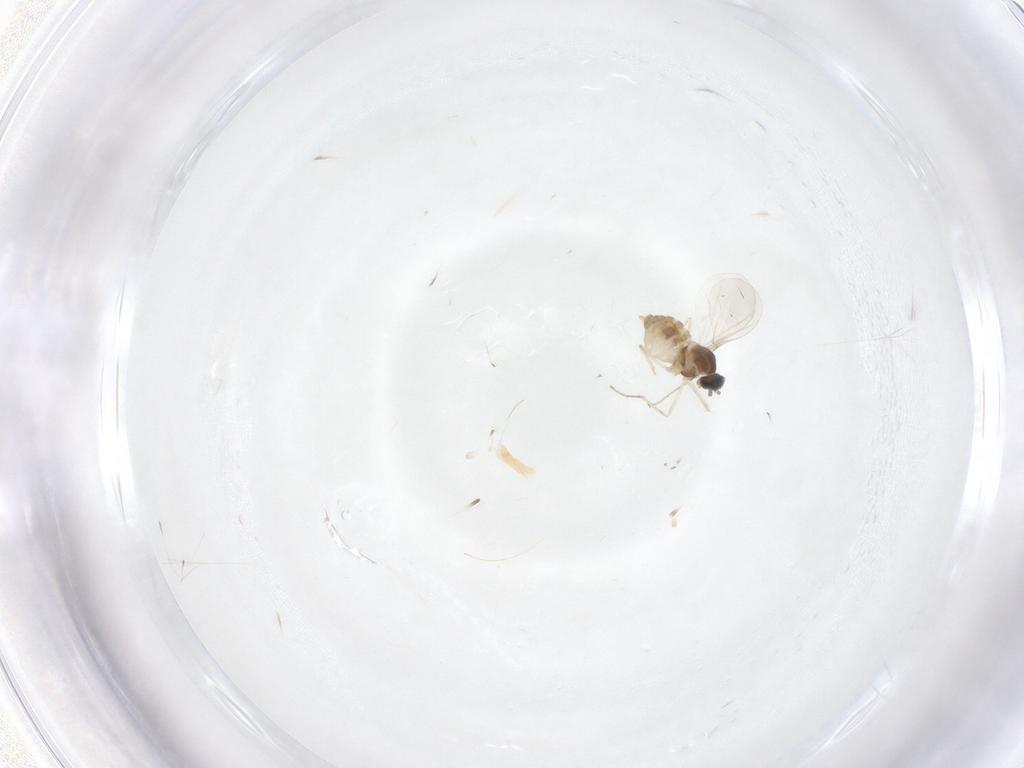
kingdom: Animalia
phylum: Arthropoda
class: Insecta
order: Diptera
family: Cecidomyiidae
